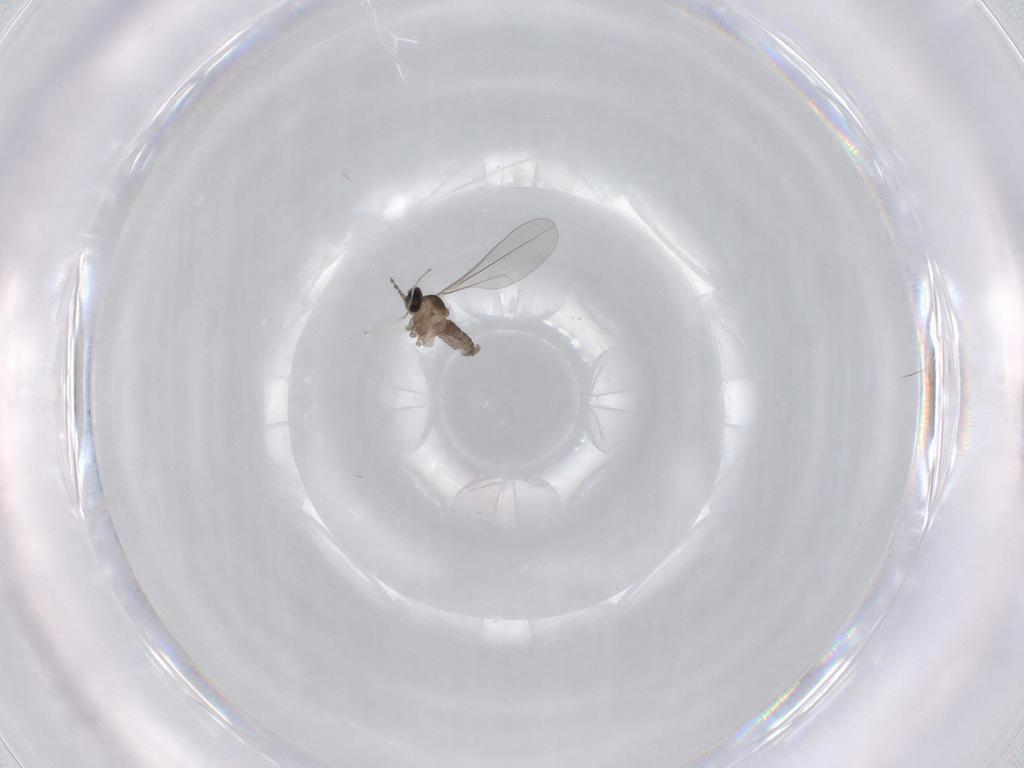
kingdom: Animalia
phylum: Arthropoda
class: Insecta
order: Diptera
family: Cecidomyiidae
